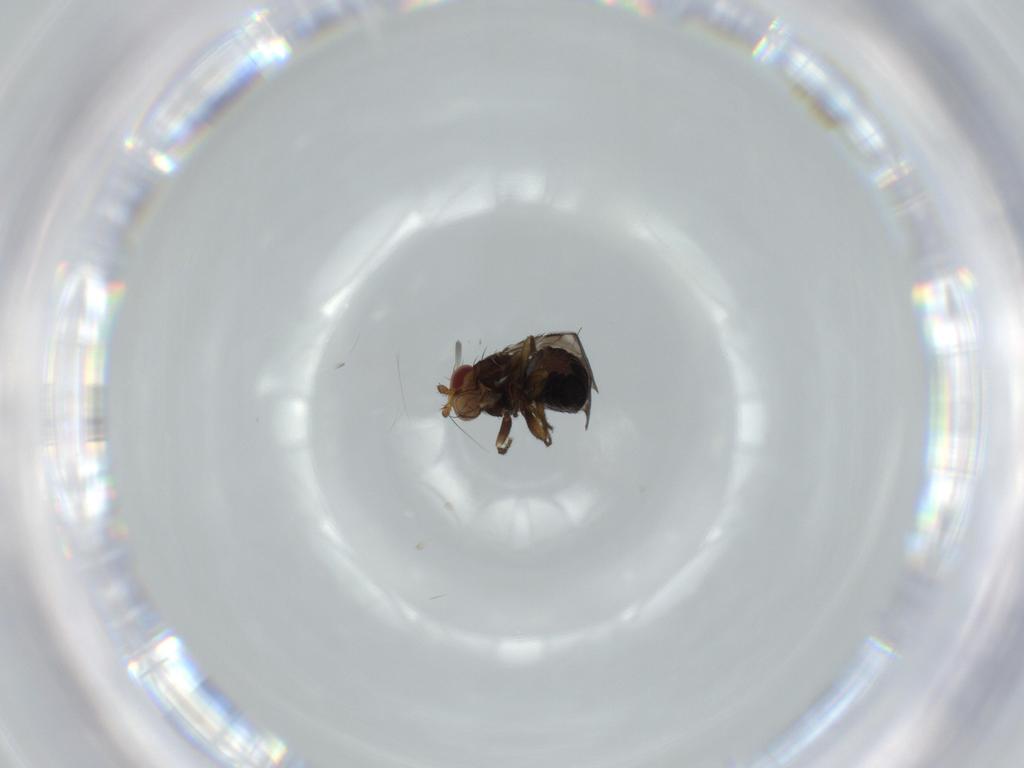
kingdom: Animalia
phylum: Arthropoda
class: Insecta
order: Diptera
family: Sphaeroceridae
